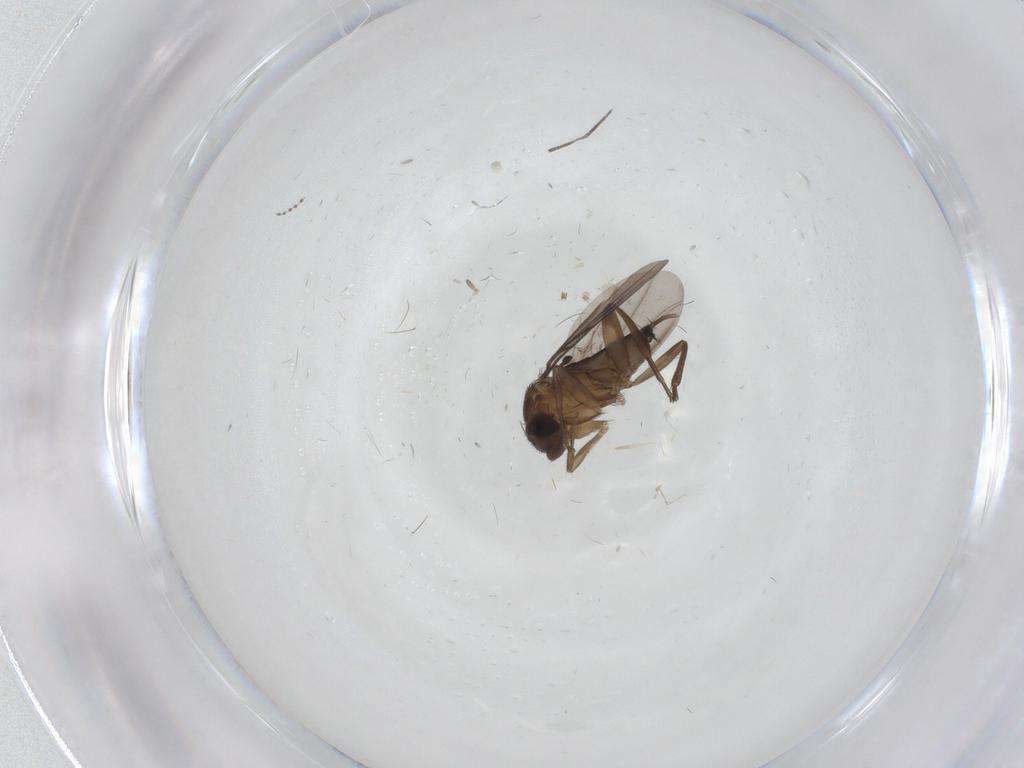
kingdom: Animalia
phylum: Arthropoda
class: Insecta
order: Diptera
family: Phoridae
